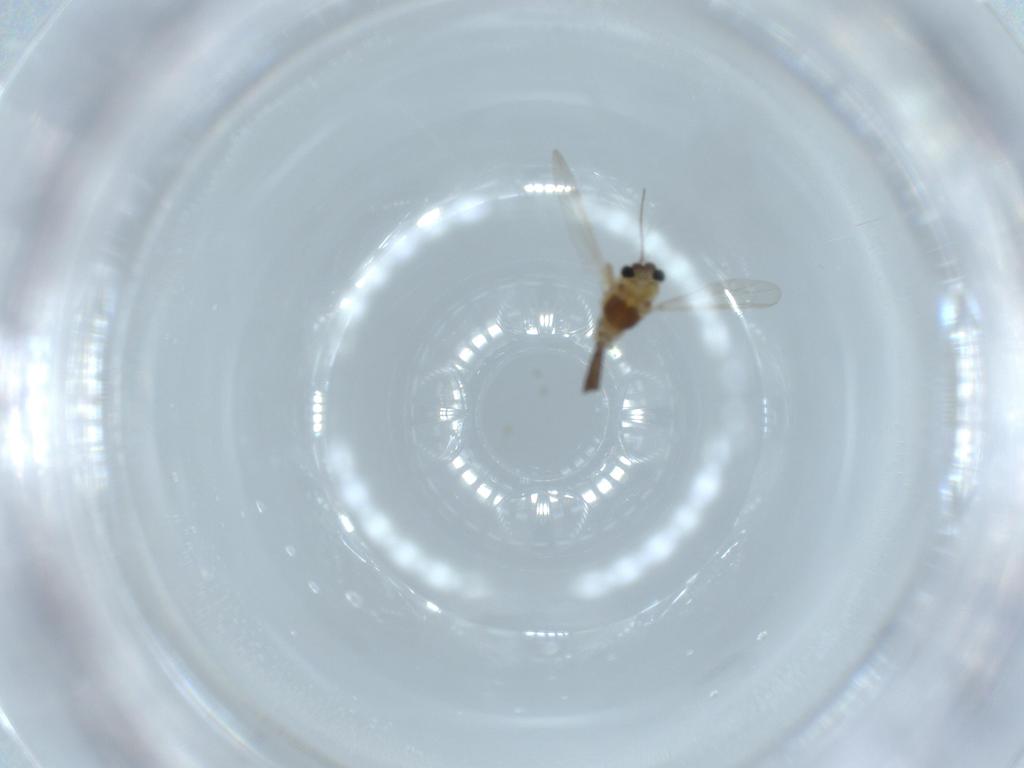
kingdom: Animalia
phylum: Arthropoda
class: Insecta
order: Diptera
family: Chironomidae
